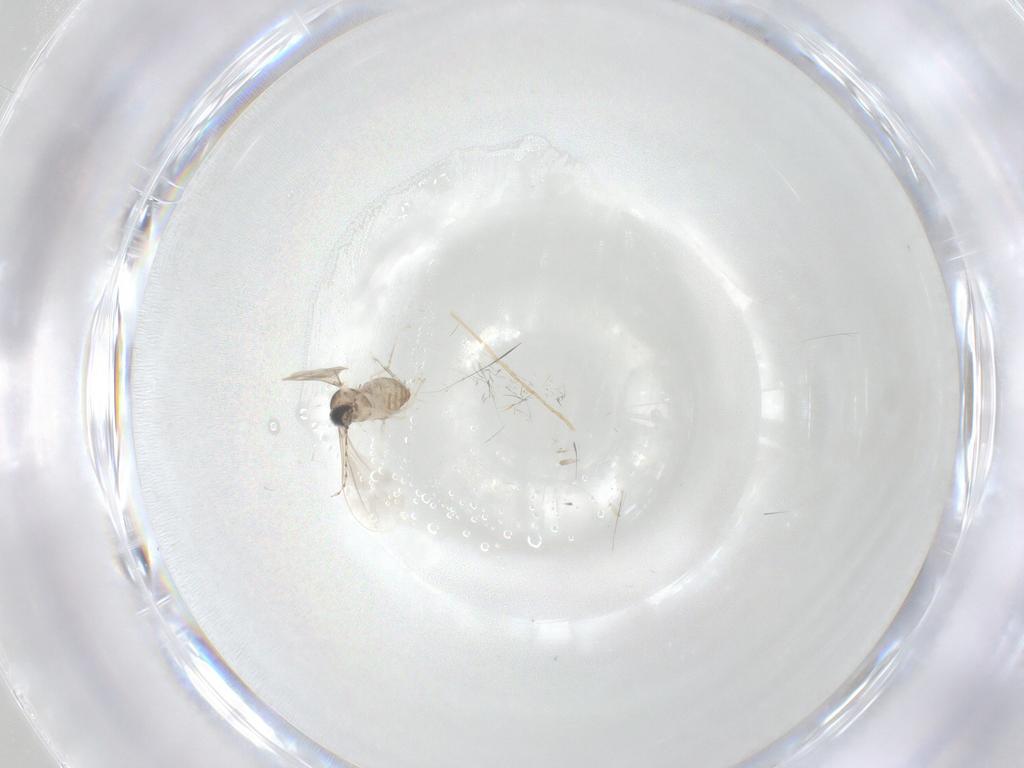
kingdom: Animalia
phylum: Arthropoda
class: Insecta
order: Diptera
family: Cecidomyiidae
